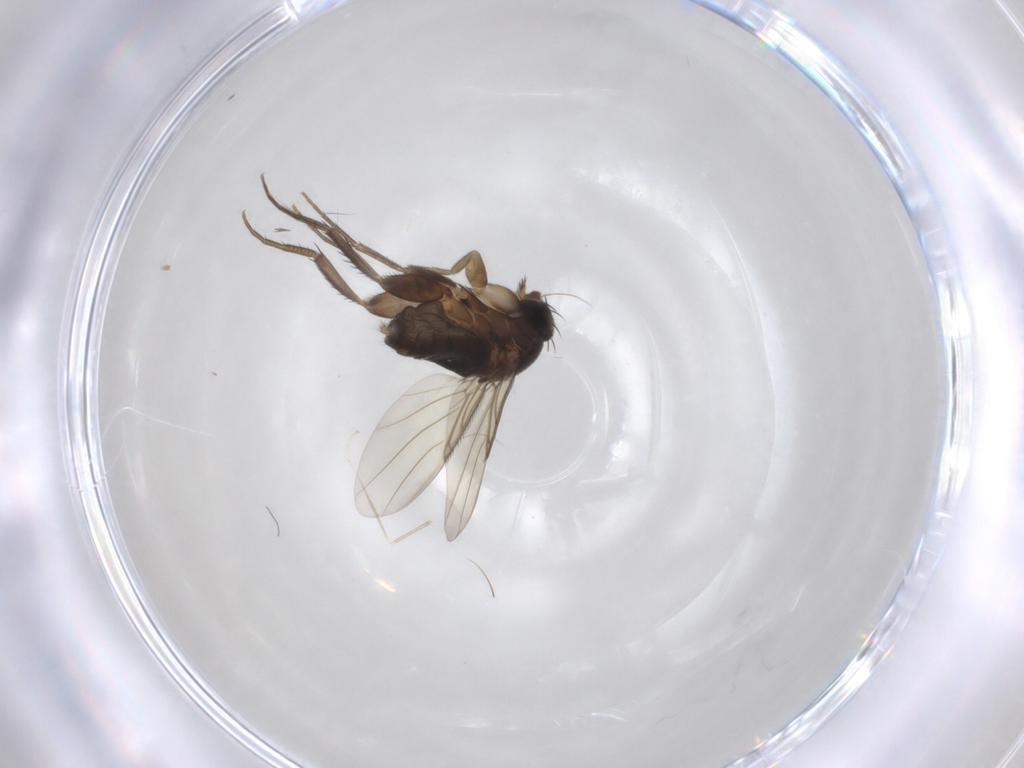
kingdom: Animalia
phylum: Arthropoda
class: Insecta
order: Diptera
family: Phoridae
